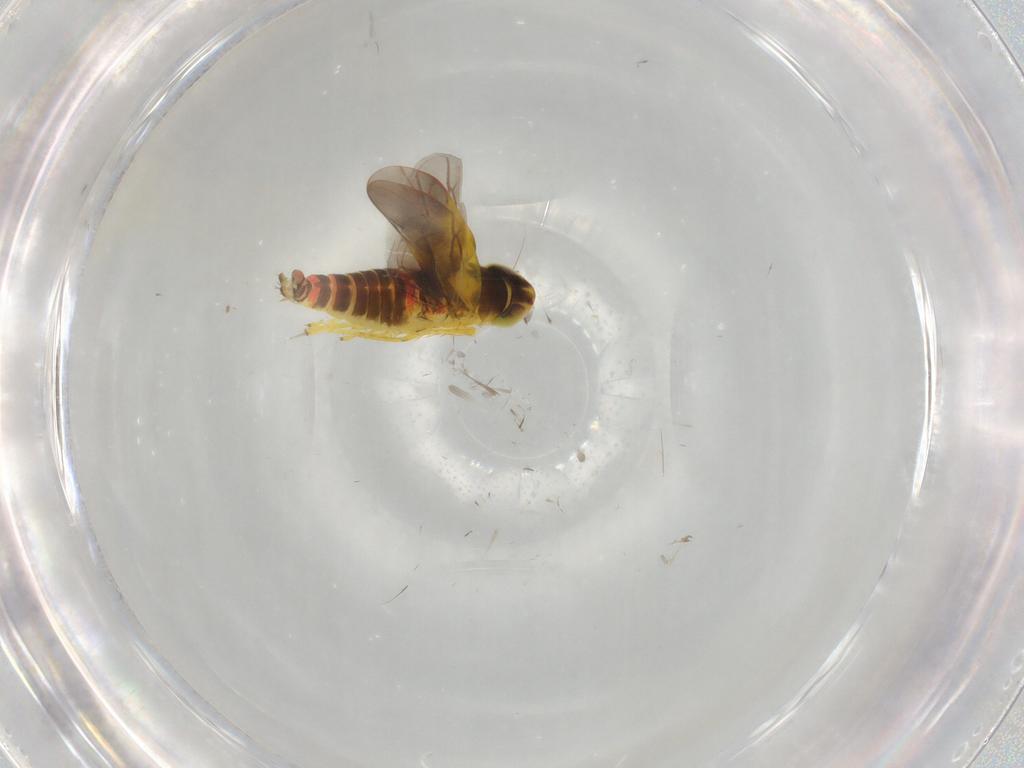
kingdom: Animalia
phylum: Arthropoda
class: Insecta
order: Hemiptera
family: Cicadellidae
